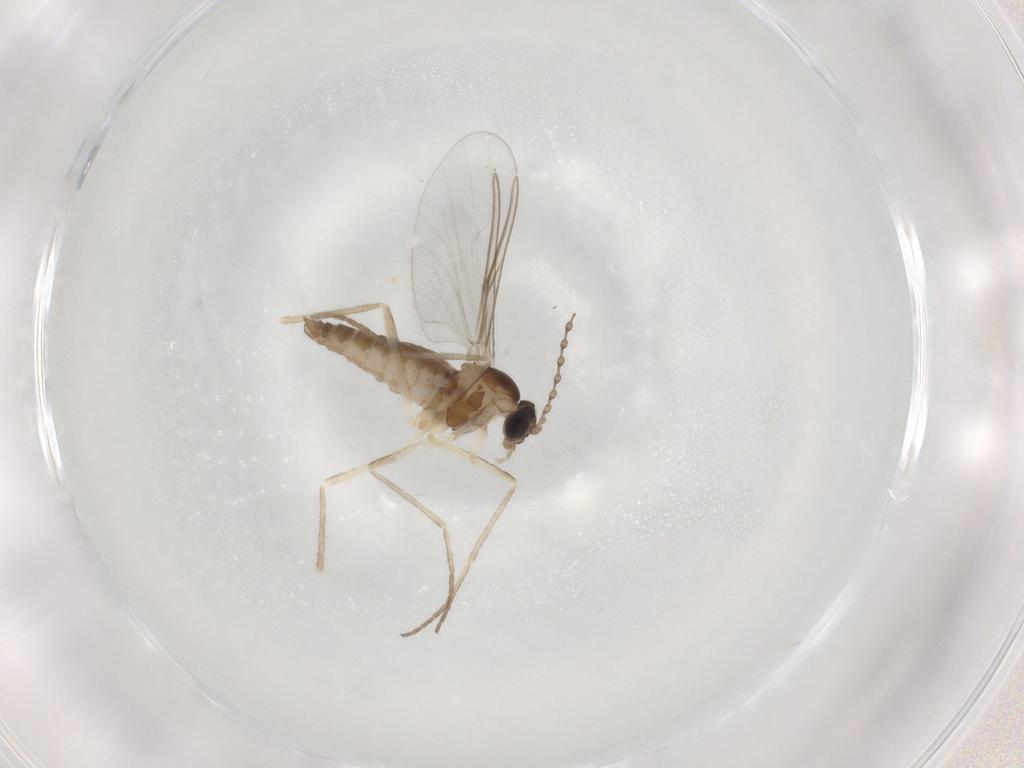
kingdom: Animalia
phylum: Arthropoda
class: Insecta
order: Diptera
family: Cecidomyiidae
